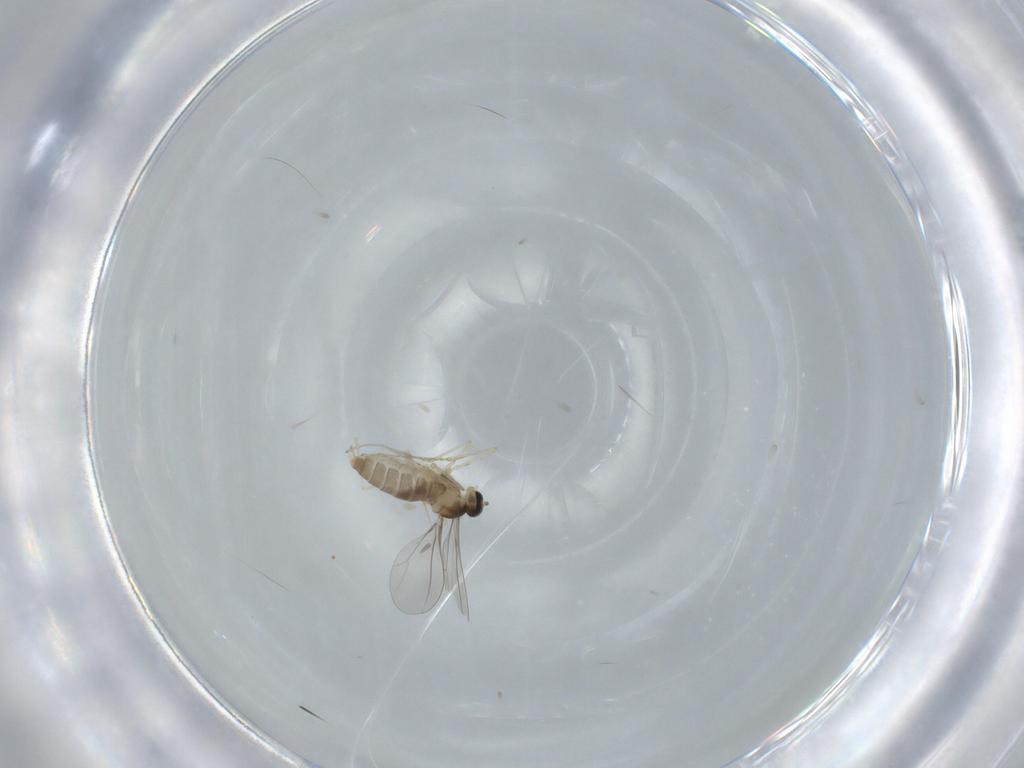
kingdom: Animalia
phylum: Arthropoda
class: Insecta
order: Diptera
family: Cecidomyiidae
